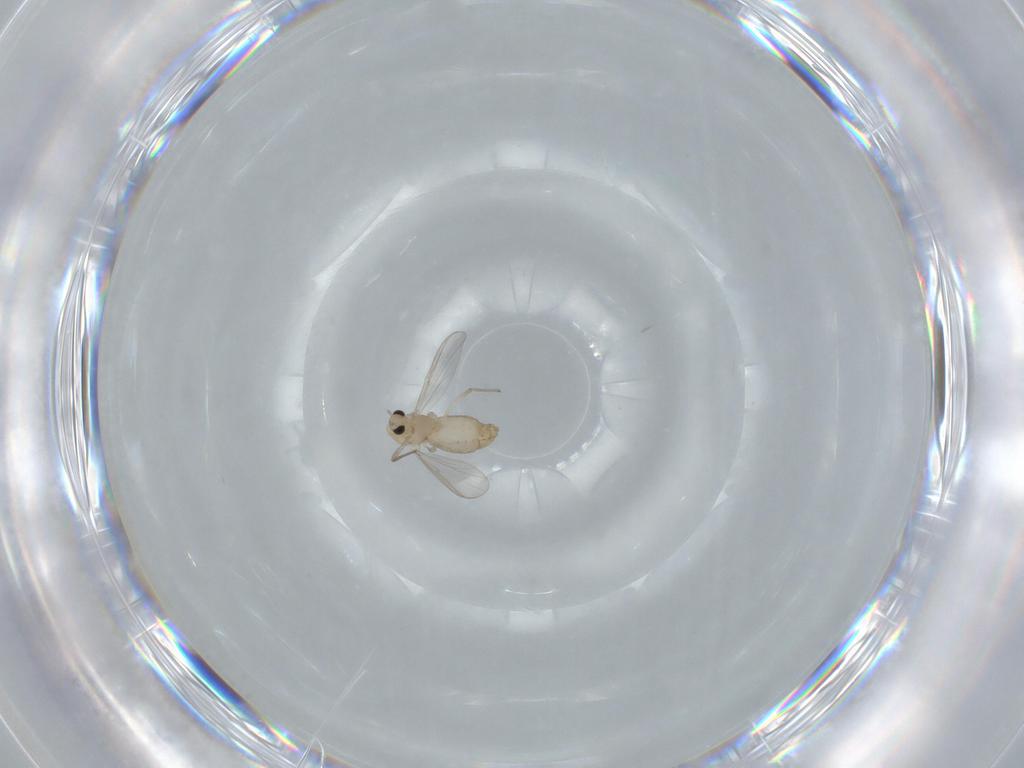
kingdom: Animalia
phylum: Arthropoda
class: Insecta
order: Diptera
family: Chironomidae
